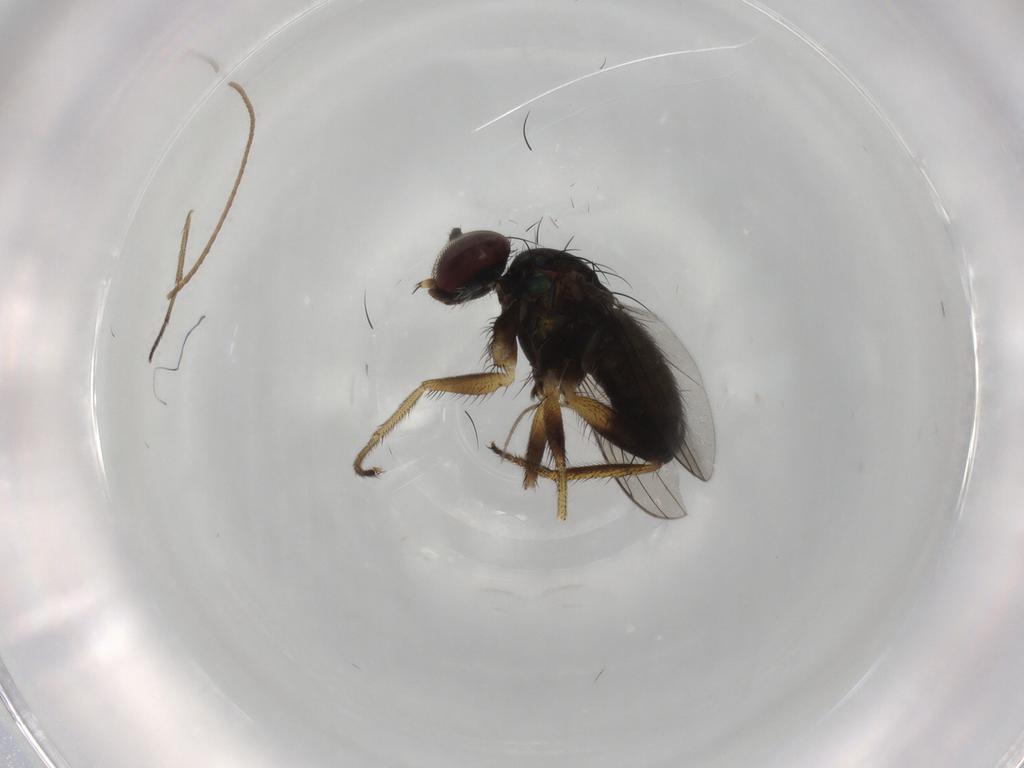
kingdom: Animalia
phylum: Arthropoda
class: Insecta
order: Diptera
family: Dolichopodidae
